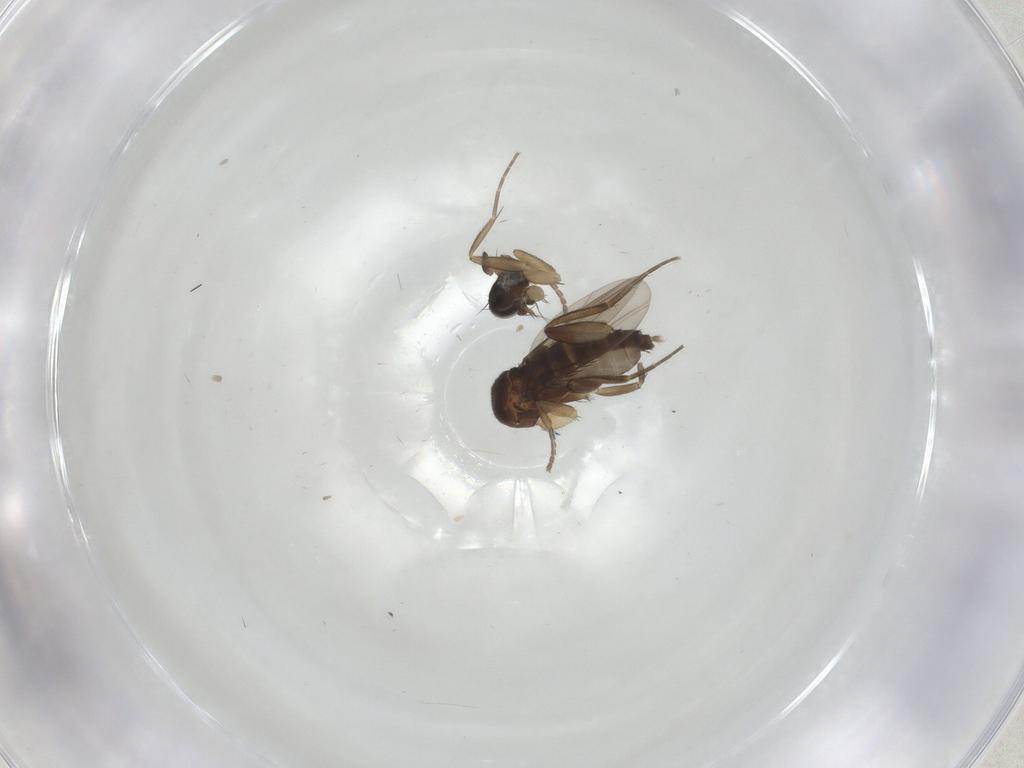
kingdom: Animalia
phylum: Arthropoda
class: Insecta
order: Diptera
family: Phoridae
